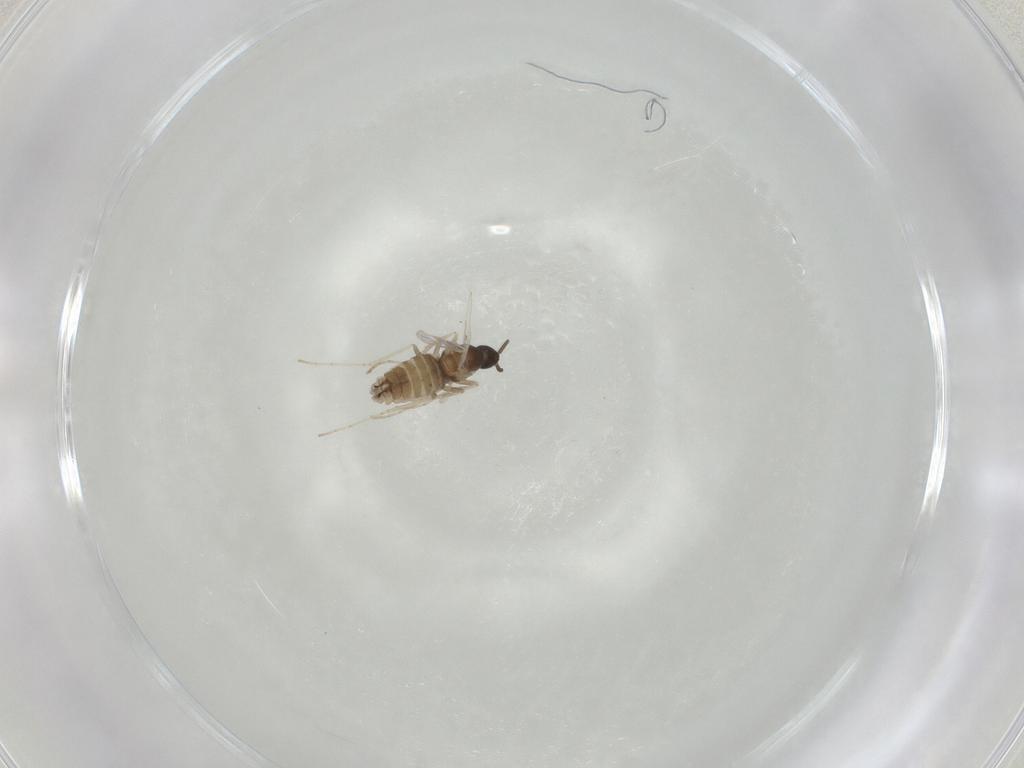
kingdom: Animalia
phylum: Arthropoda
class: Insecta
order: Diptera
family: Cecidomyiidae
